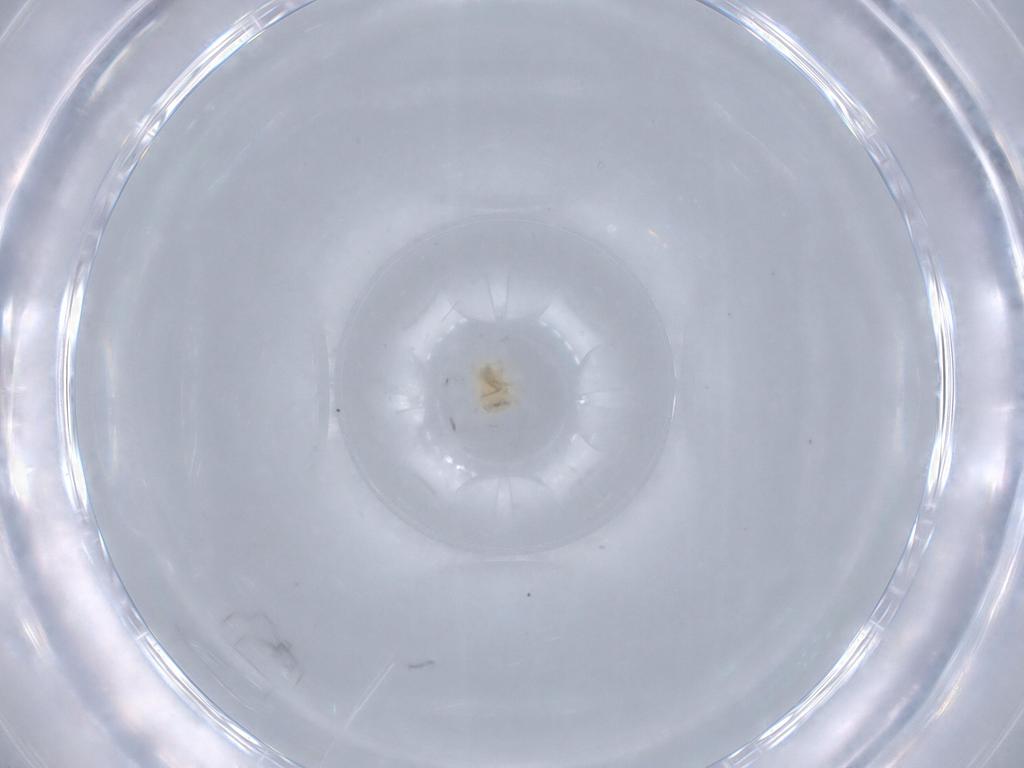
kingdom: Animalia
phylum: Arthropoda
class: Arachnida
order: Mesostigmata
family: Blattisociidae
